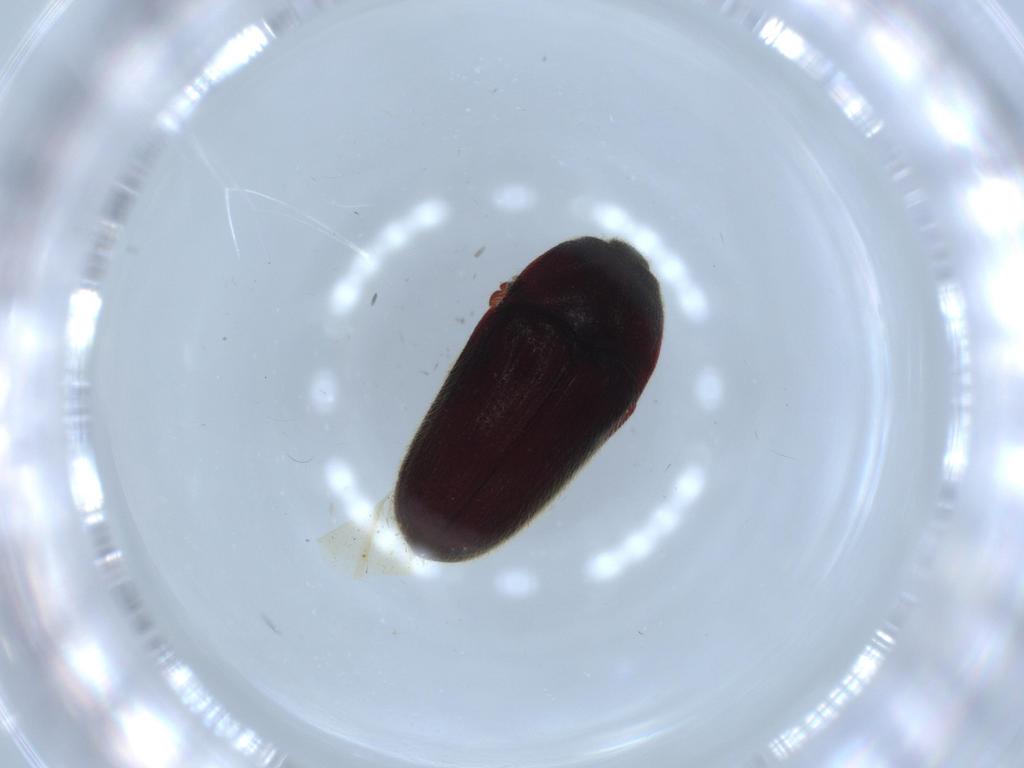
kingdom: Animalia
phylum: Arthropoda
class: Insecta
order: Coleoptera
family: Throscidae
